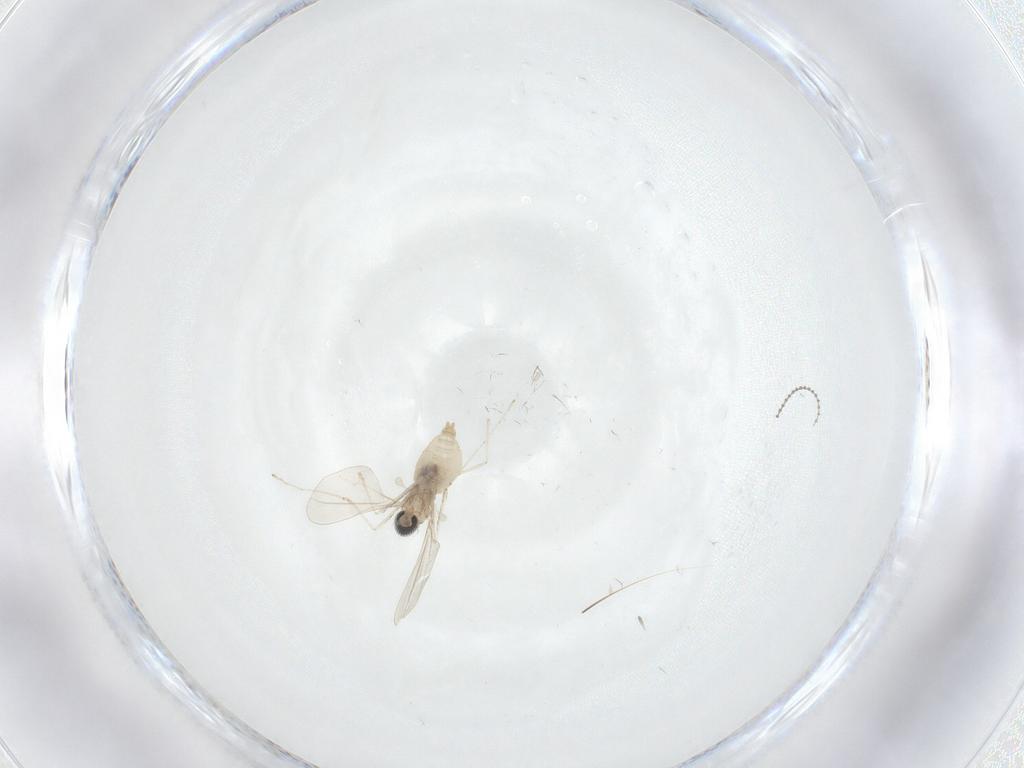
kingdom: Animalia
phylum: Arthropoda
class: Insecta
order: Diptera
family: Cecidomyiidae
